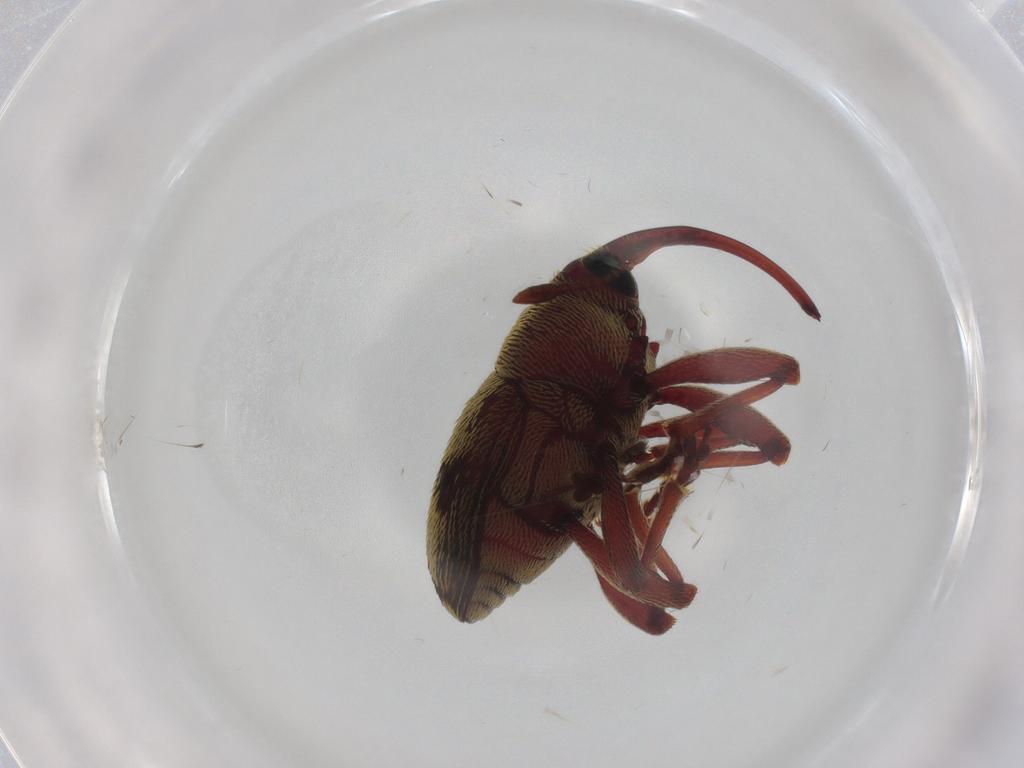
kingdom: Animalia
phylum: Arthropoda
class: Insecta
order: Coleoptera
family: Curculionidae
